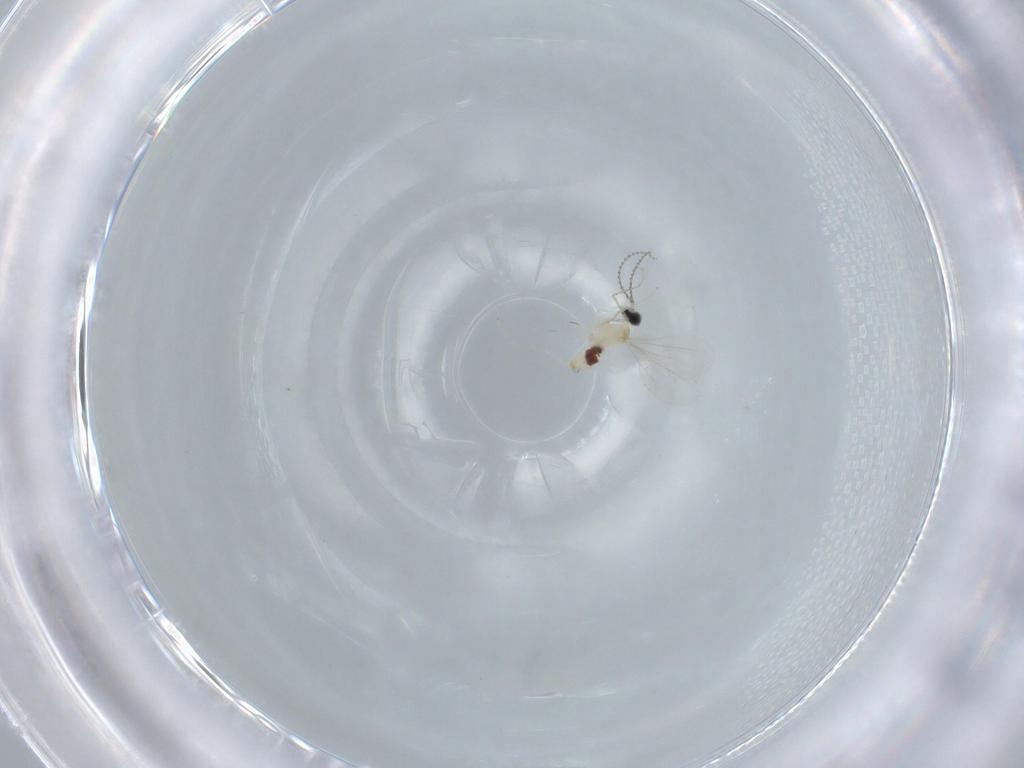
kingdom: Animalia
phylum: Arthropoda
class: Insecta
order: Diptera
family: Cecidomyiidae
